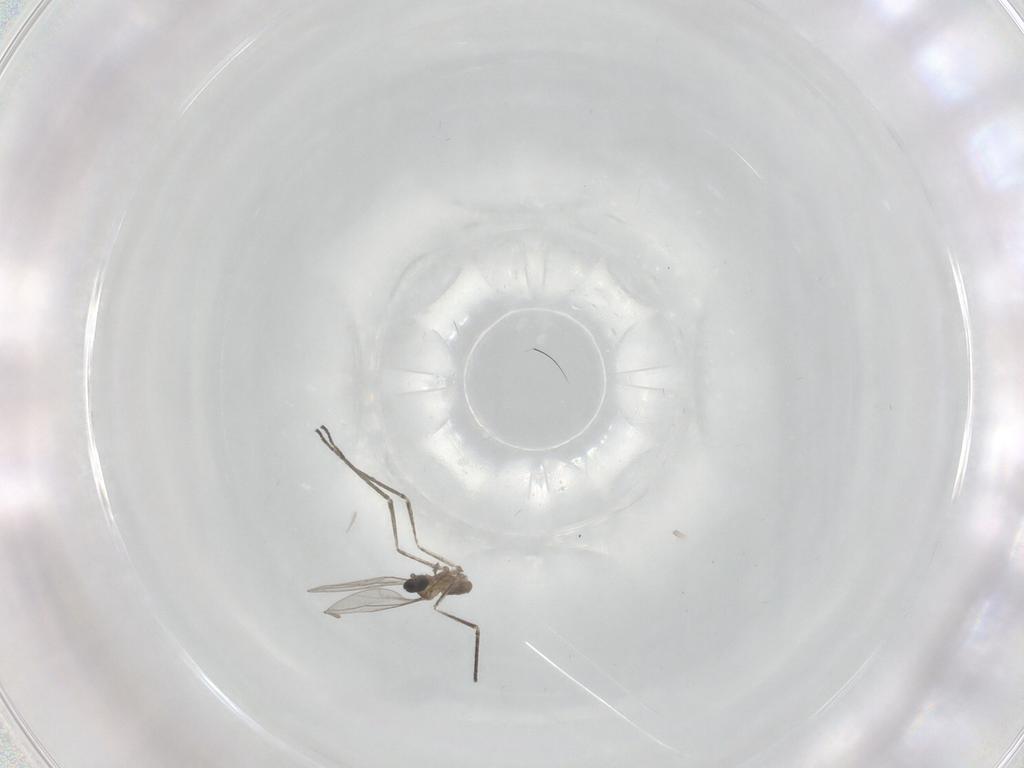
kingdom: Animalia
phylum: Arthropoda
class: Insecta
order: Diptera
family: Cecidomyiidae
